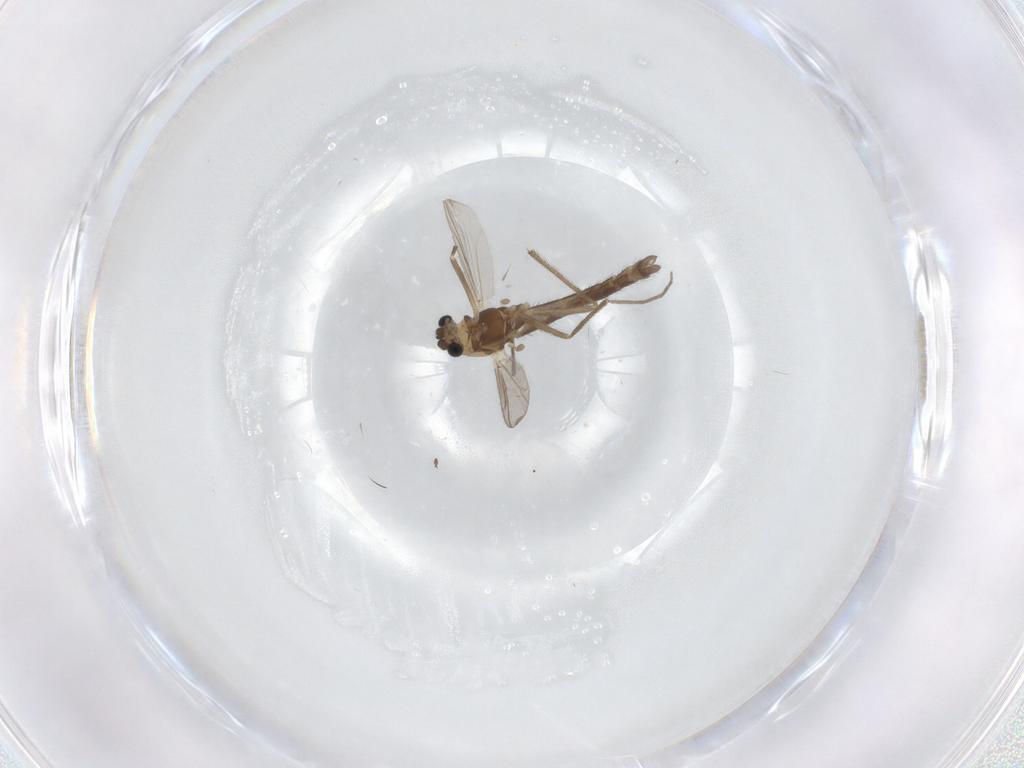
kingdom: Animalia
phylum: Arthropoda
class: Insecta
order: Diptera
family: Chironomidae
